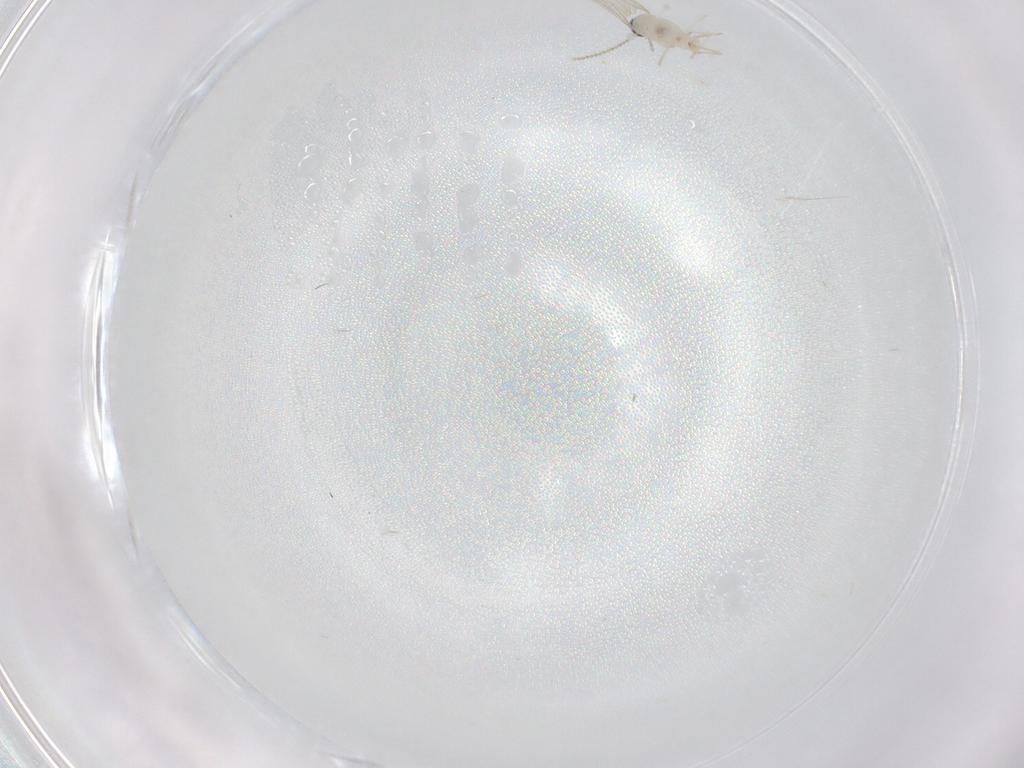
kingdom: Animalia
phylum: Arthropoda
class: Insecta
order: Diptera
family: Cecidomyiidae
